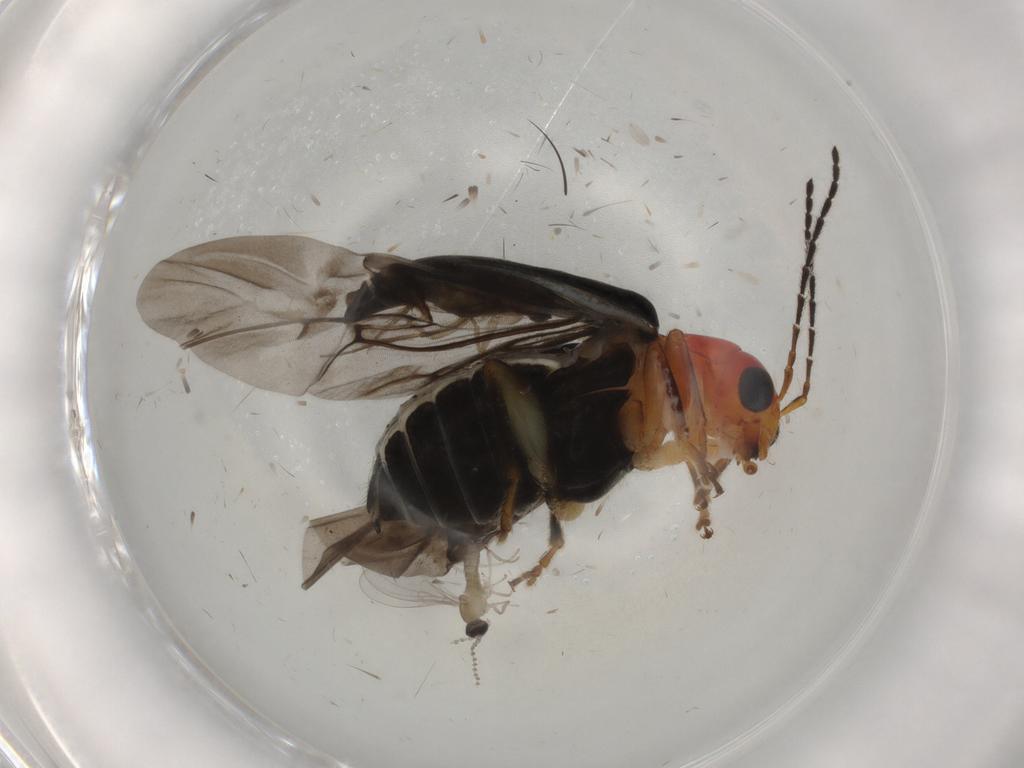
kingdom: Animalia
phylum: Arthropoda
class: Insecta
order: Diptera
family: Cecidomyiidae
